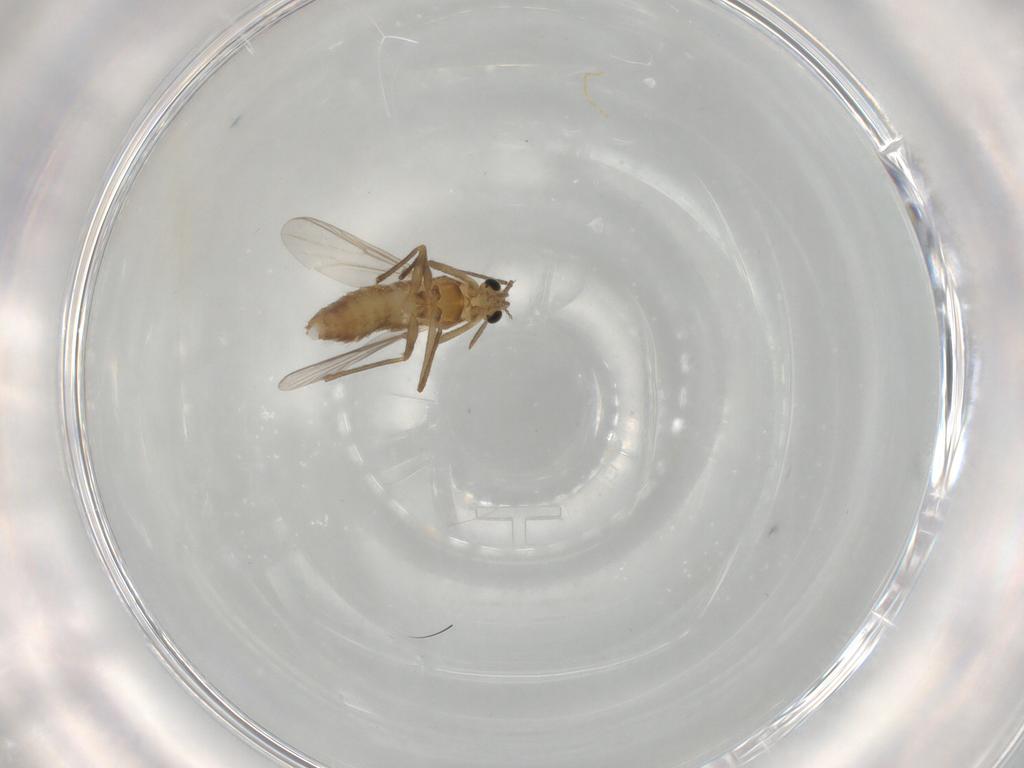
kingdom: Animalia
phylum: Arthropoda
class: Insecta
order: Diptera
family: Chironomidae
